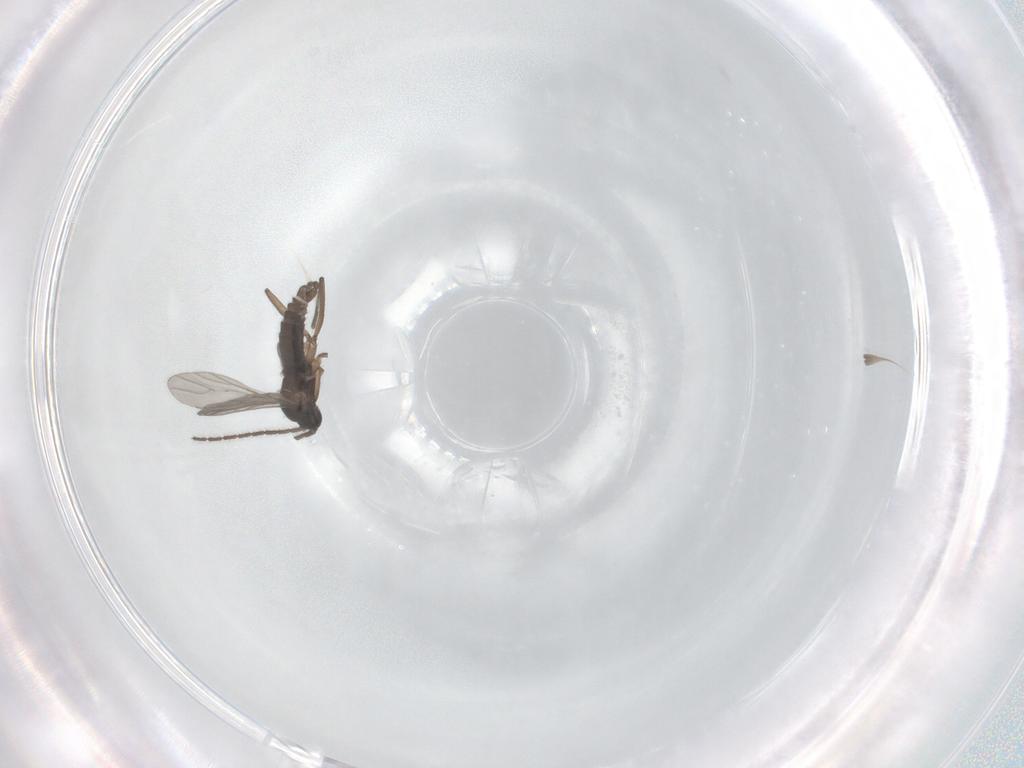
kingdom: Animalia
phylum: Arthropoda
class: Insecta
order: Diptera
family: Sciaridae
